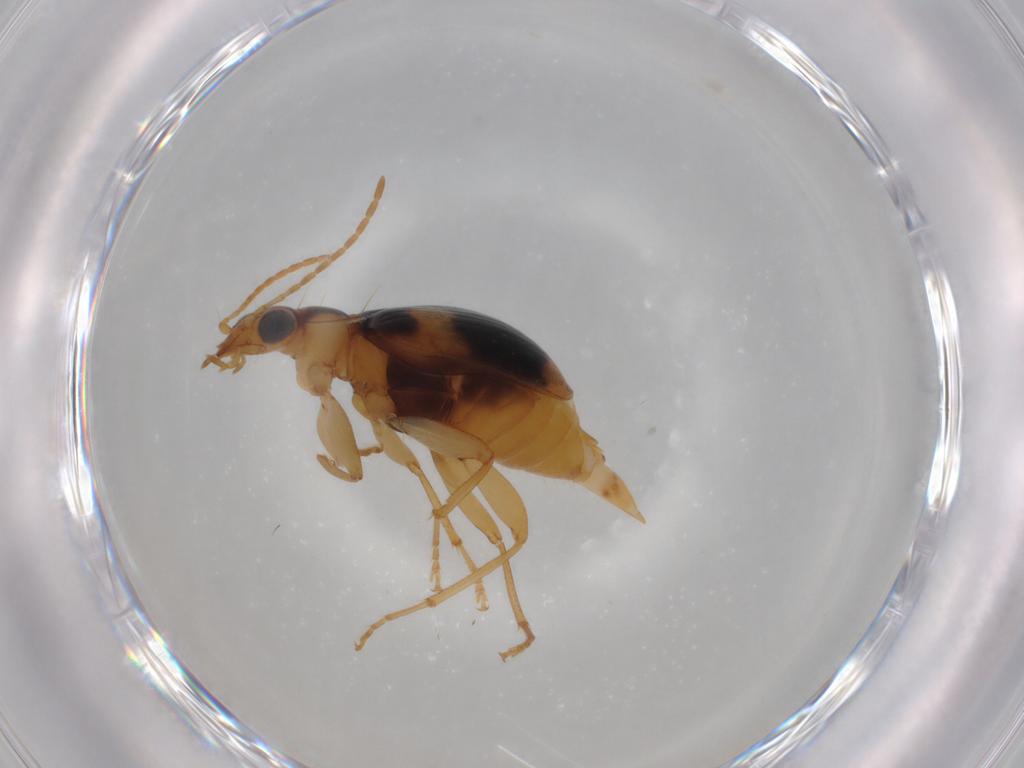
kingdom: Animalia
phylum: Arthropoda
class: Insecta
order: Coleoptera
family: Carabidae
